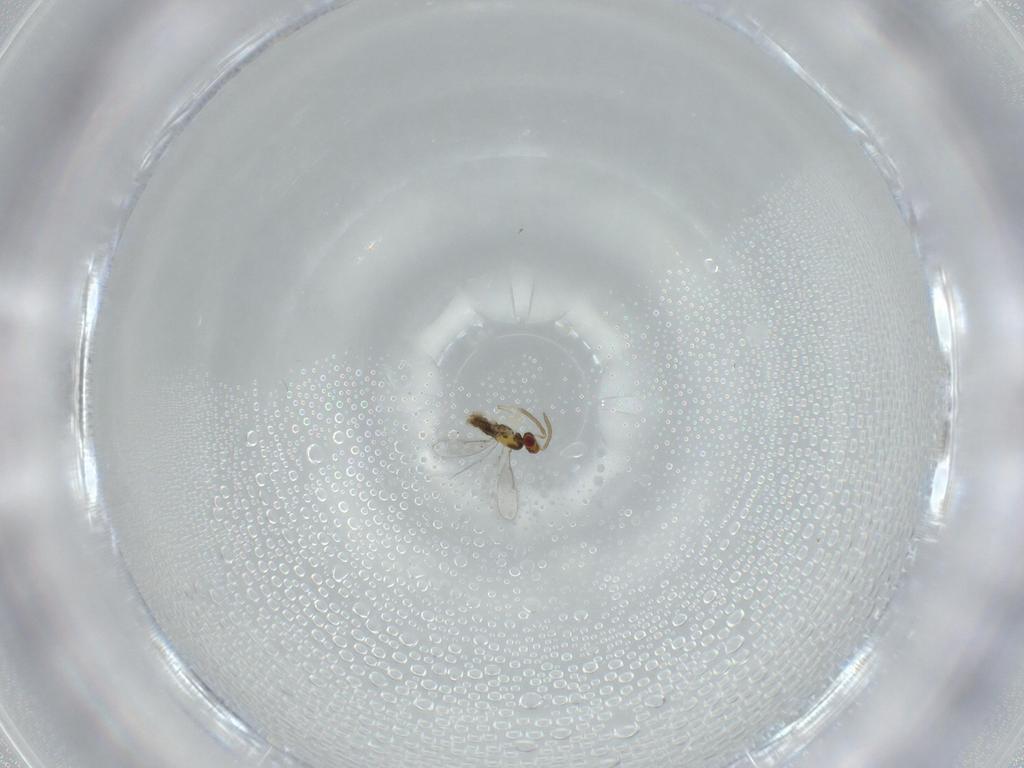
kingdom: Animalia
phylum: Arthropoda
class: Insecta
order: Hymenoptera
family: Aphelinidae
